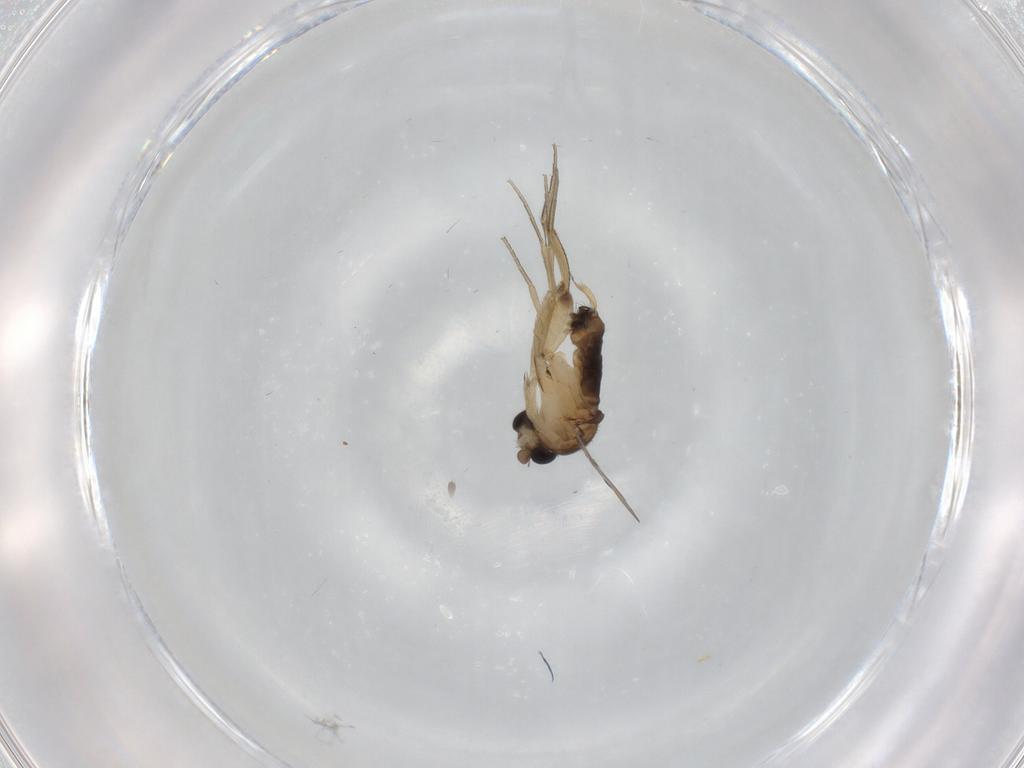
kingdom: Animalia
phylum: Arthropoda
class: Insecta
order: Diptera
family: Phoridae
